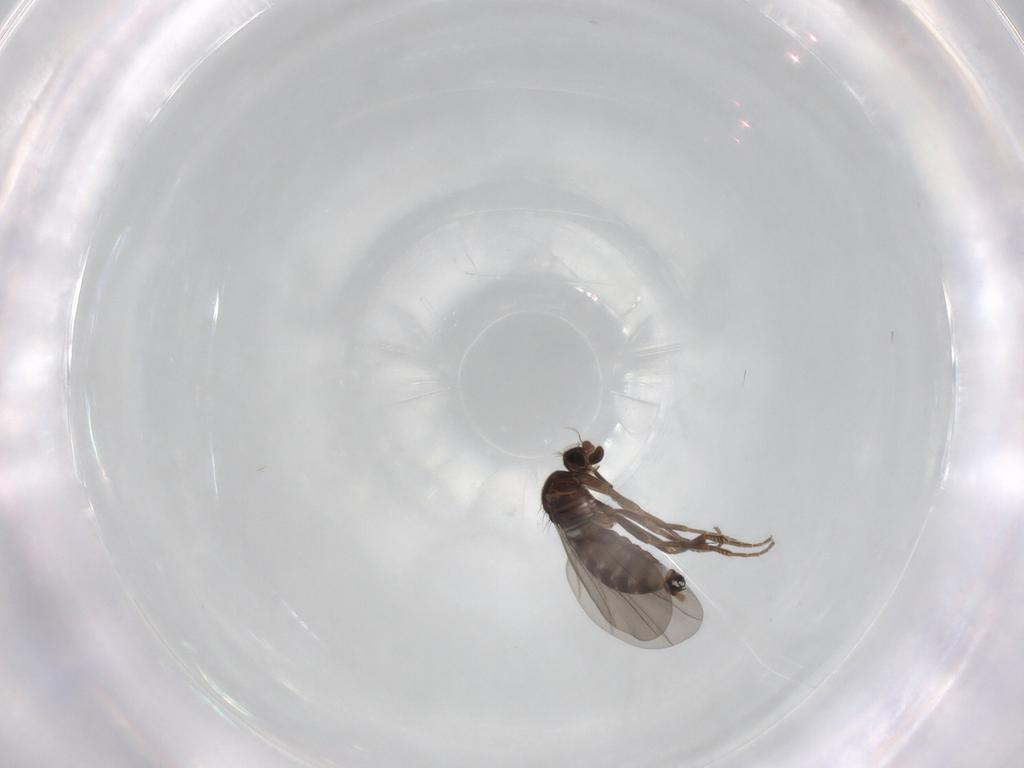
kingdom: Animalia
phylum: Arthropoda
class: Insecta
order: Diptera
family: Phoridae
